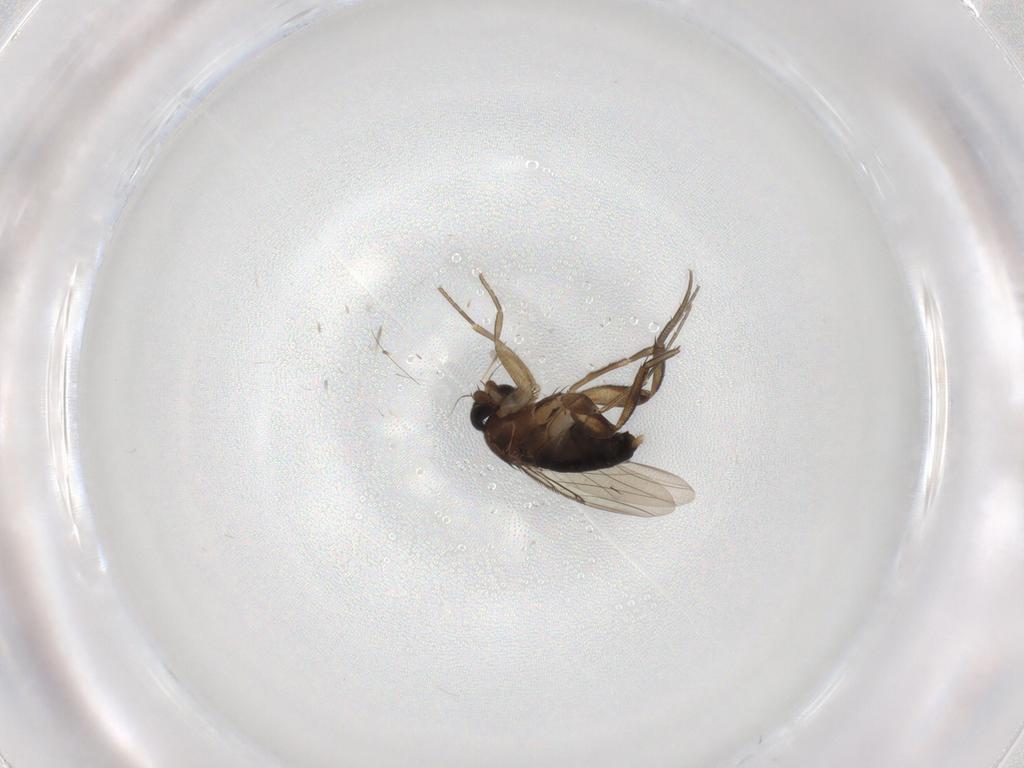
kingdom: Animalia
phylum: Arthropoda
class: Insecta
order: Diptera
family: Phoridae
